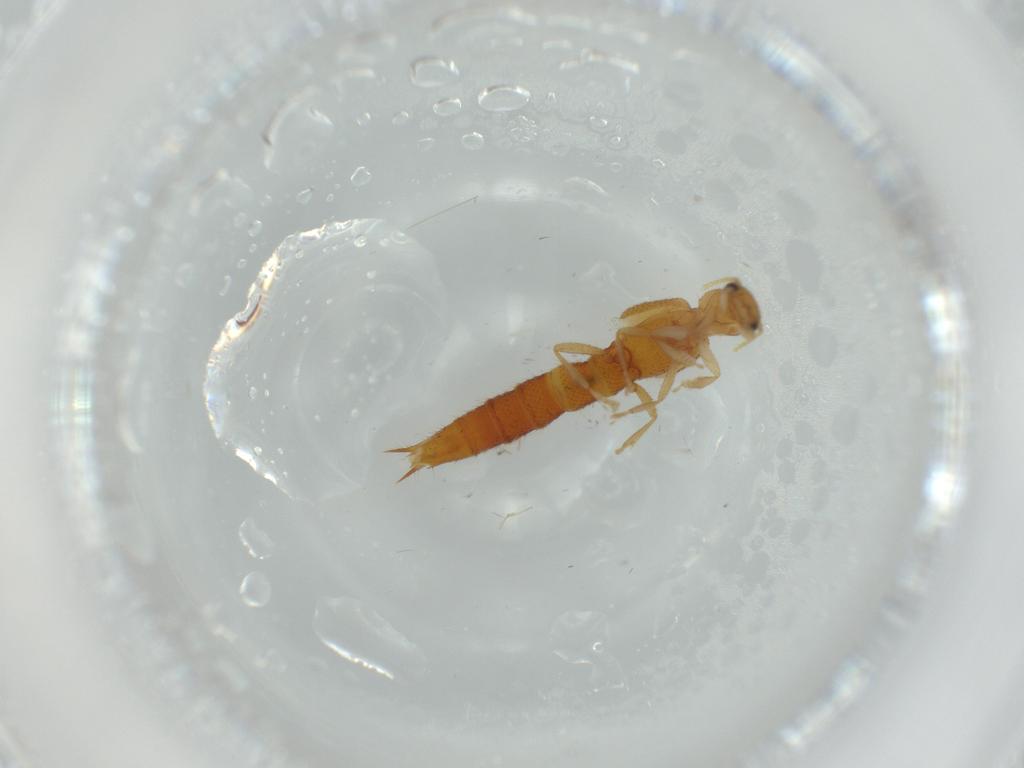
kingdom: Animalia
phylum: Arthropoda
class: Insecta
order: Coleoptera
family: Staphylinidae
